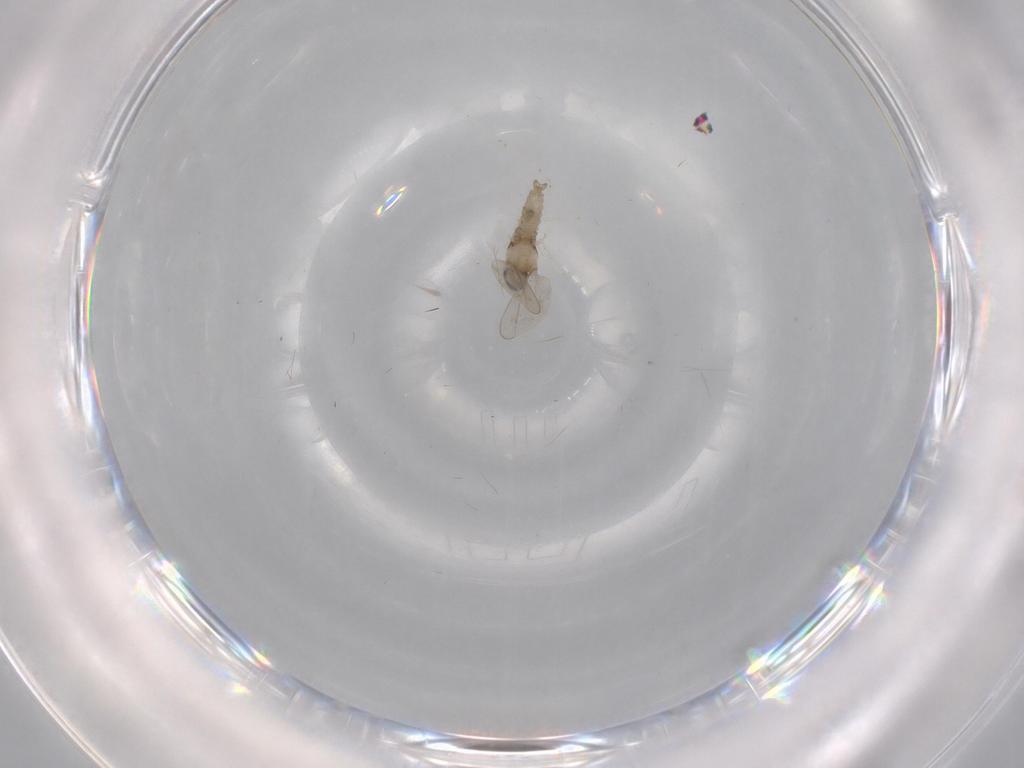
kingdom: Animalia
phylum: Arthropoda
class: Insecta
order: Diptera
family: Cecidomyiidae
